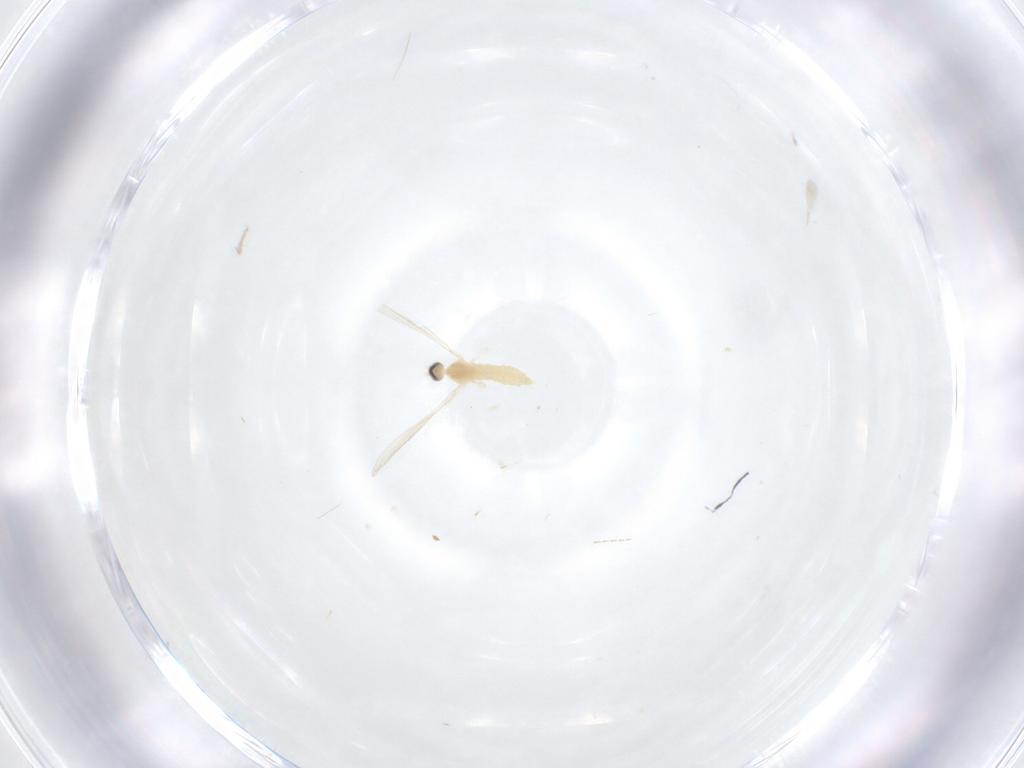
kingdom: Animalia
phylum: Arthropoda
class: Insecta
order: Diptera
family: Cecidomyiidae
